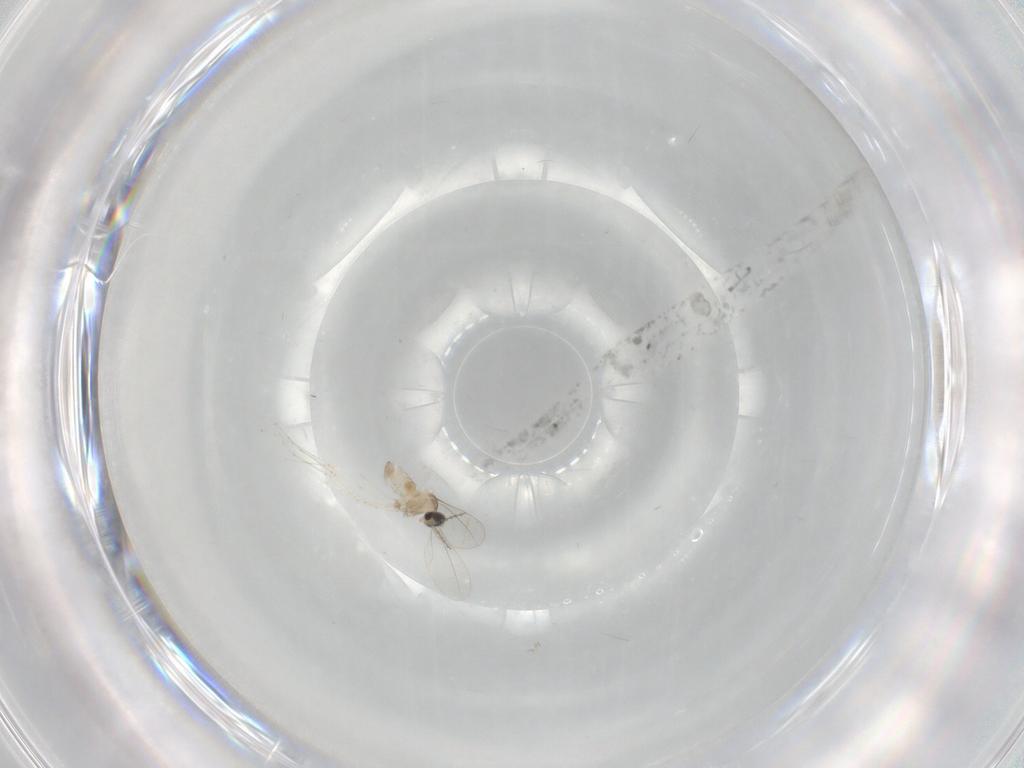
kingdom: Animalia
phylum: Arthropoda
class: Insecta
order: Diptera
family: Cecidomyiidae
